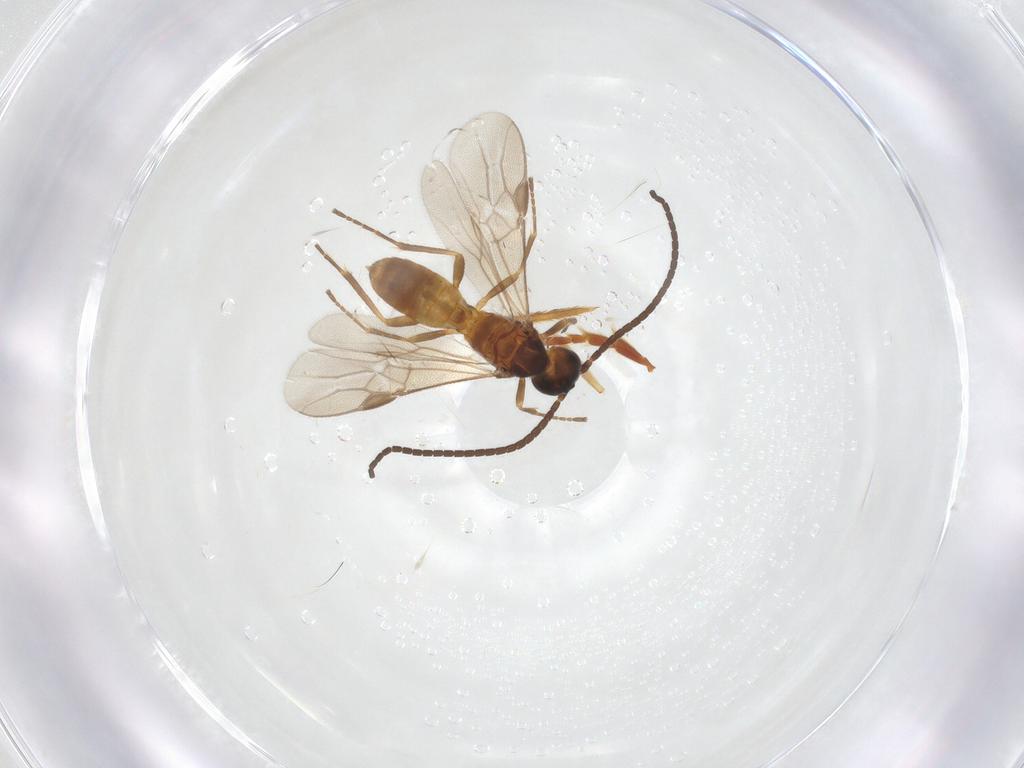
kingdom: Animalia
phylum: Arthropoda
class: Insecta
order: Hymenoptera
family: Braconidae
